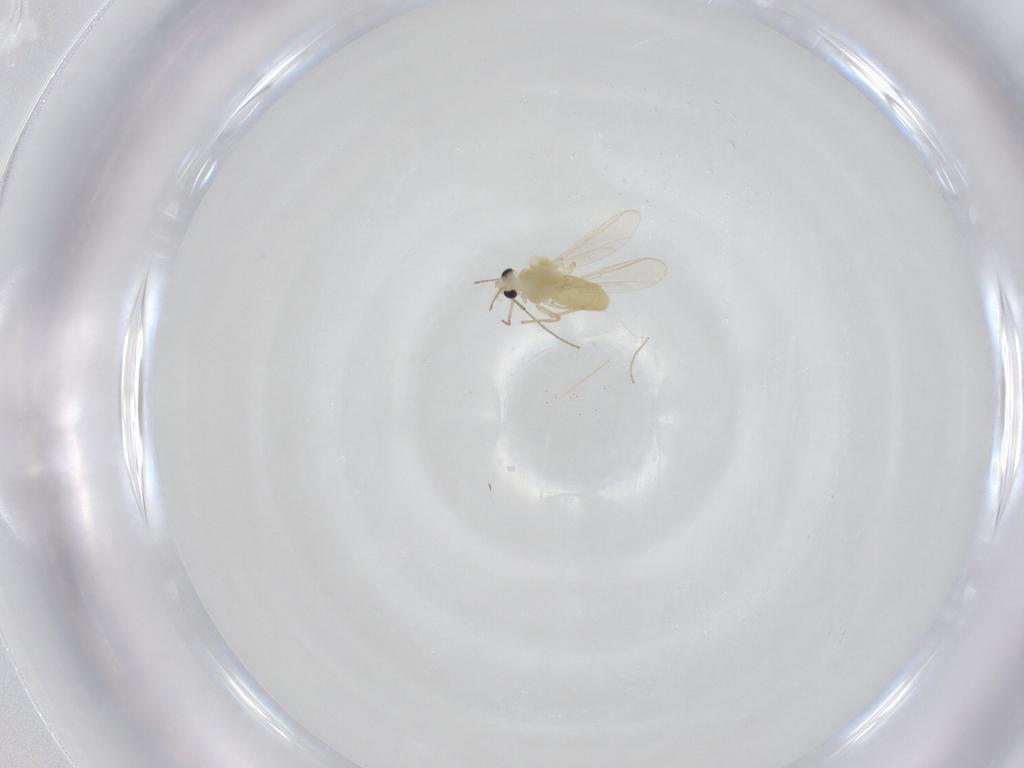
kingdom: Animalia
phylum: Arthropoda
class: Insecta
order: Diptera
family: Chironomidae
